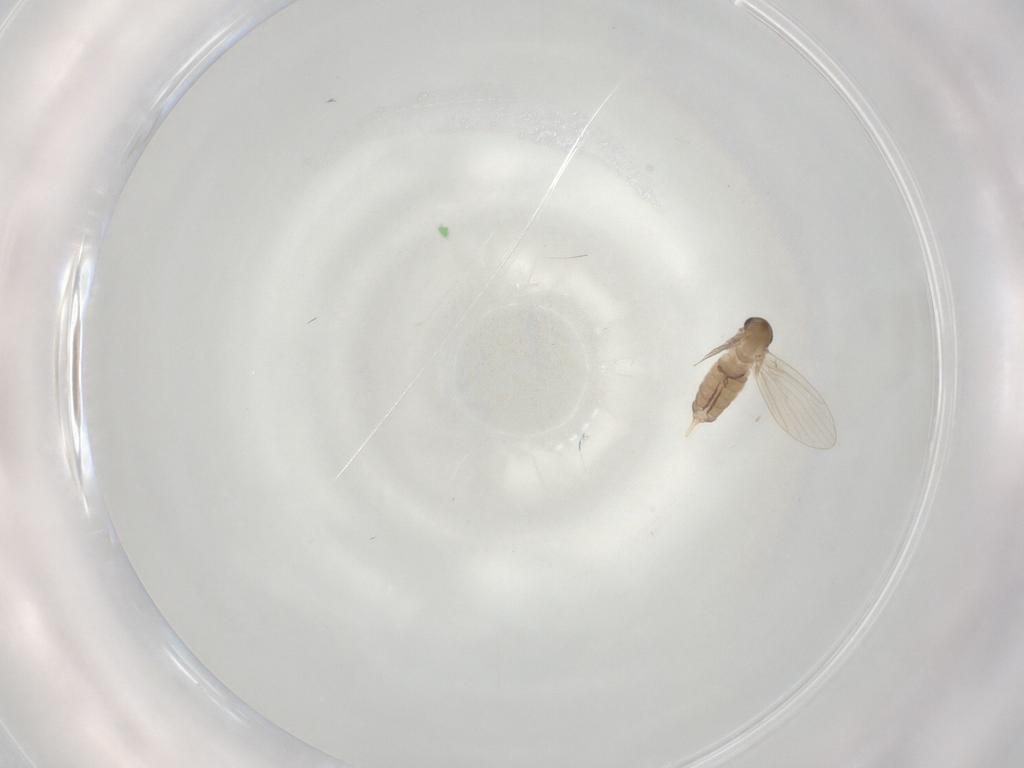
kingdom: Animalia
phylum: Arthropoda
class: Insecta
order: Diptera
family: Psychodidae
